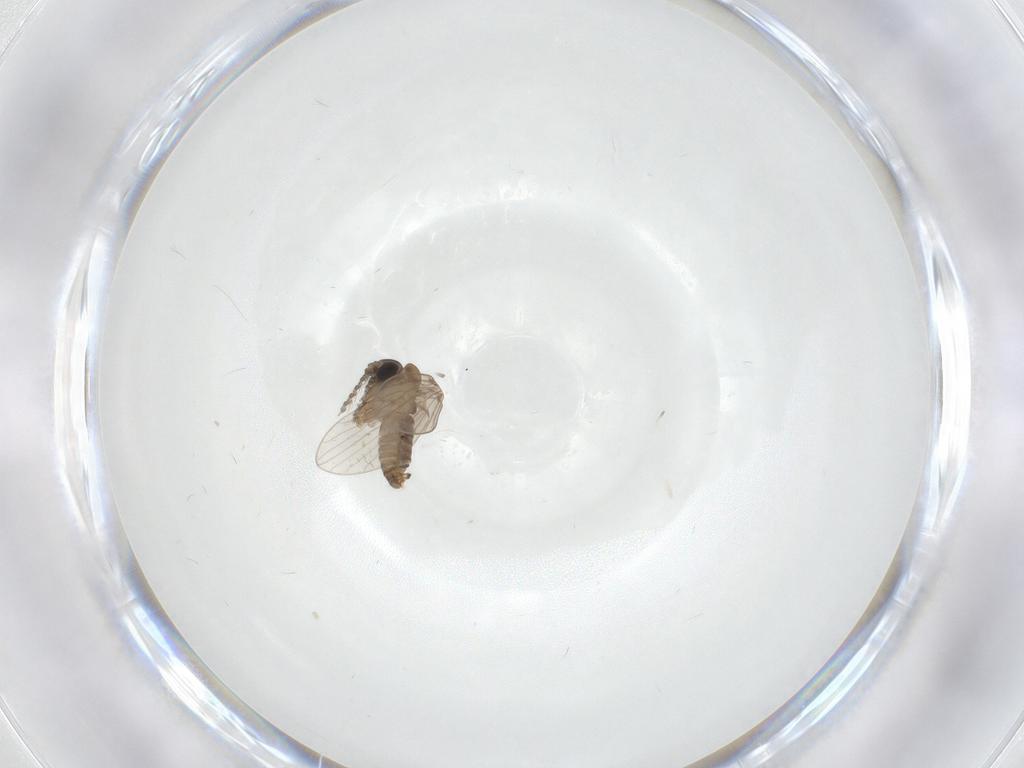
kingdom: Animalia
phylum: Arthropoda
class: Insecta
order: Diptera
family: Psychodidae
